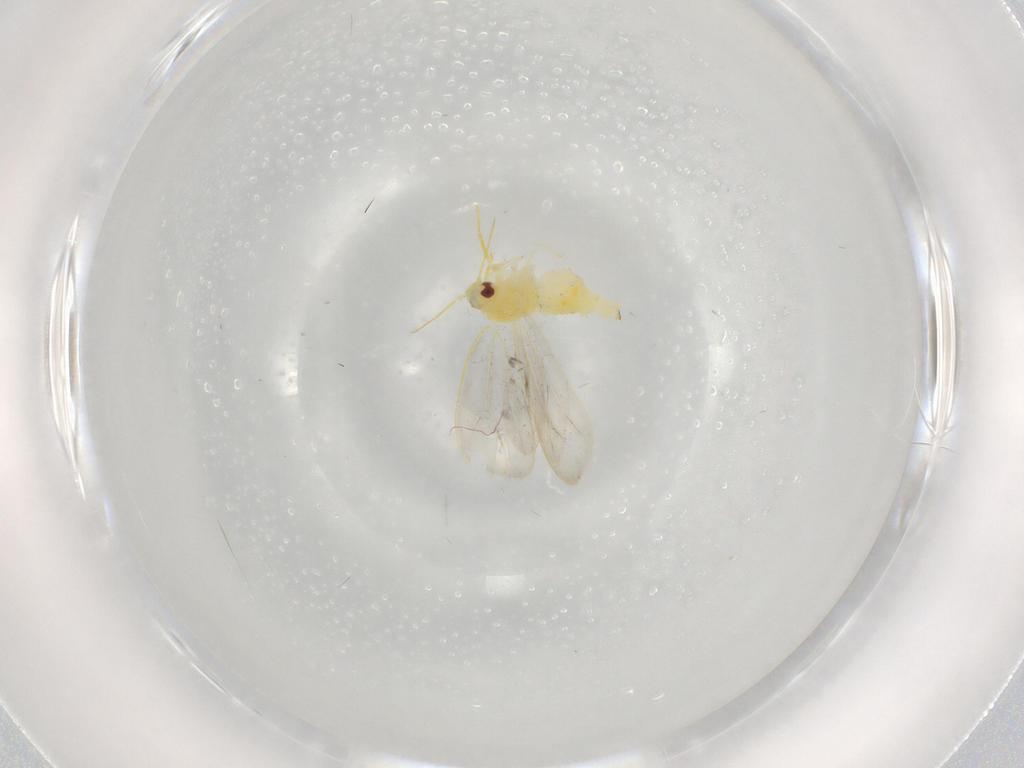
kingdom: Animalia
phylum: Arthropoda
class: Insecta
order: Hemiptera
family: Aleyrodidae
